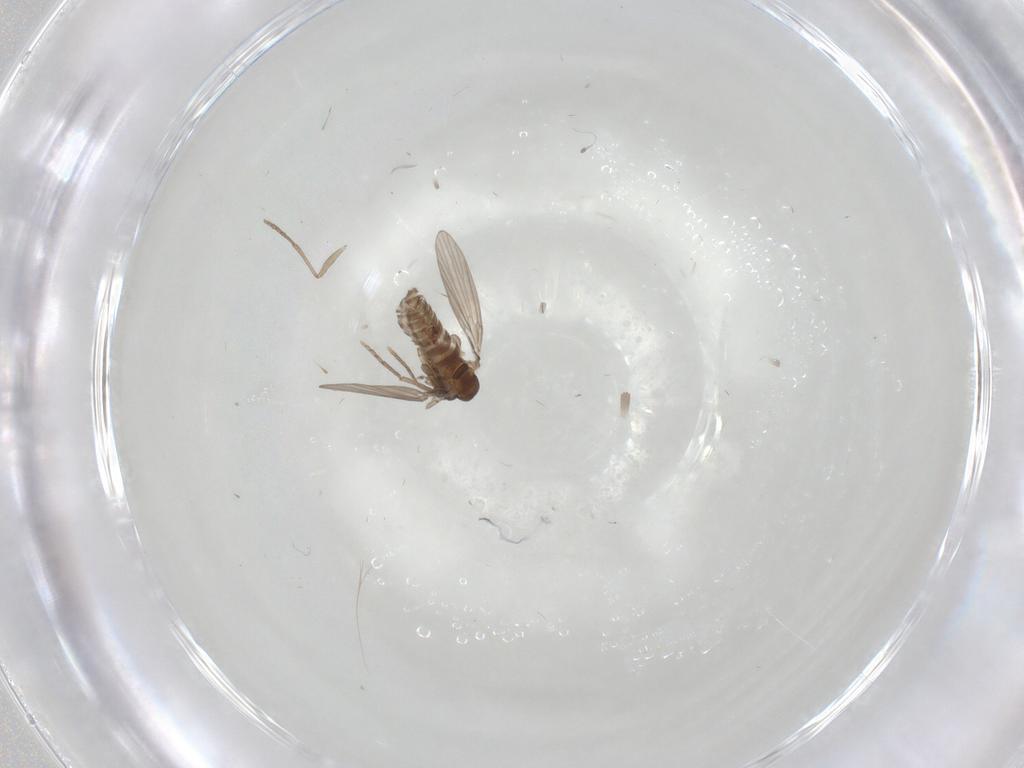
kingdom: Animalia
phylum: Arthropoda
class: Insecta
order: Diptera
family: Psychodidae
